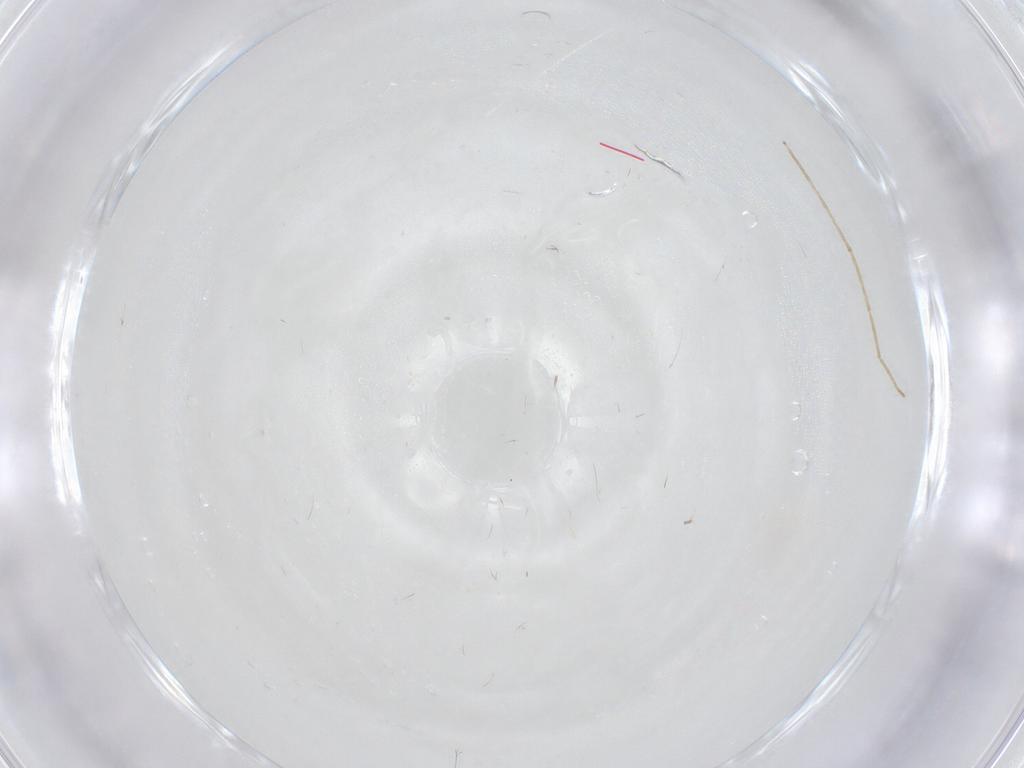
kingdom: Animalia
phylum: Arthropoda
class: Insecta
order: Diptera
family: Chironomidae
